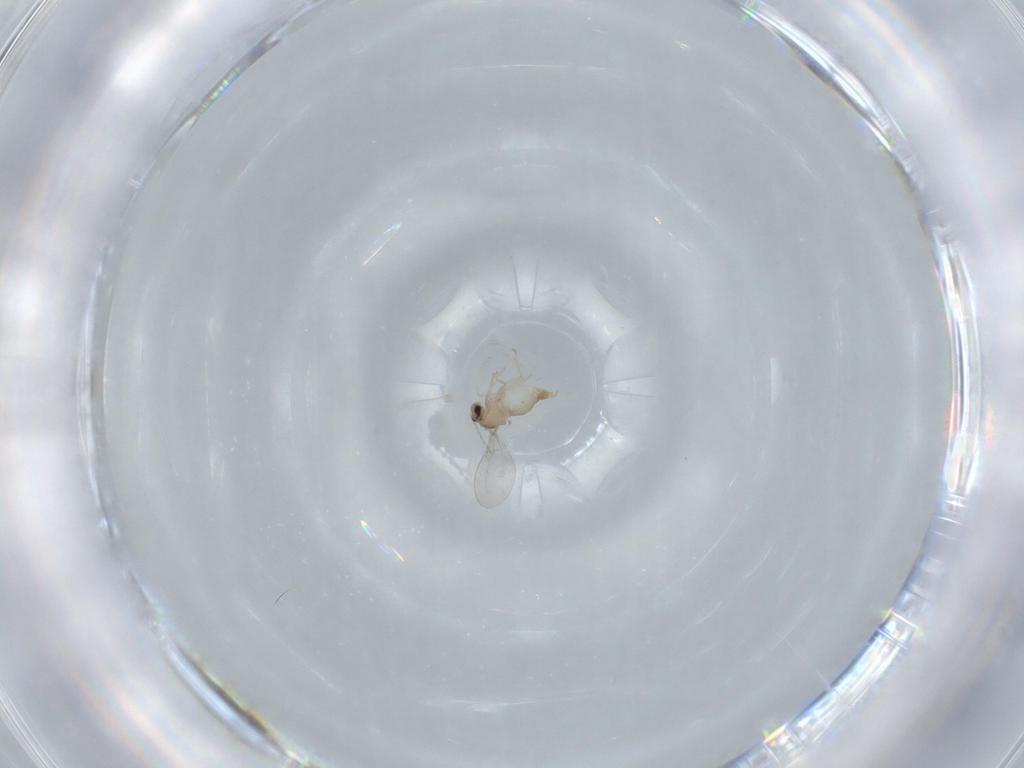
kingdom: Animalia
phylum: Arthropoda
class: Insecta
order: Diptera
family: Cecidomyiidae
